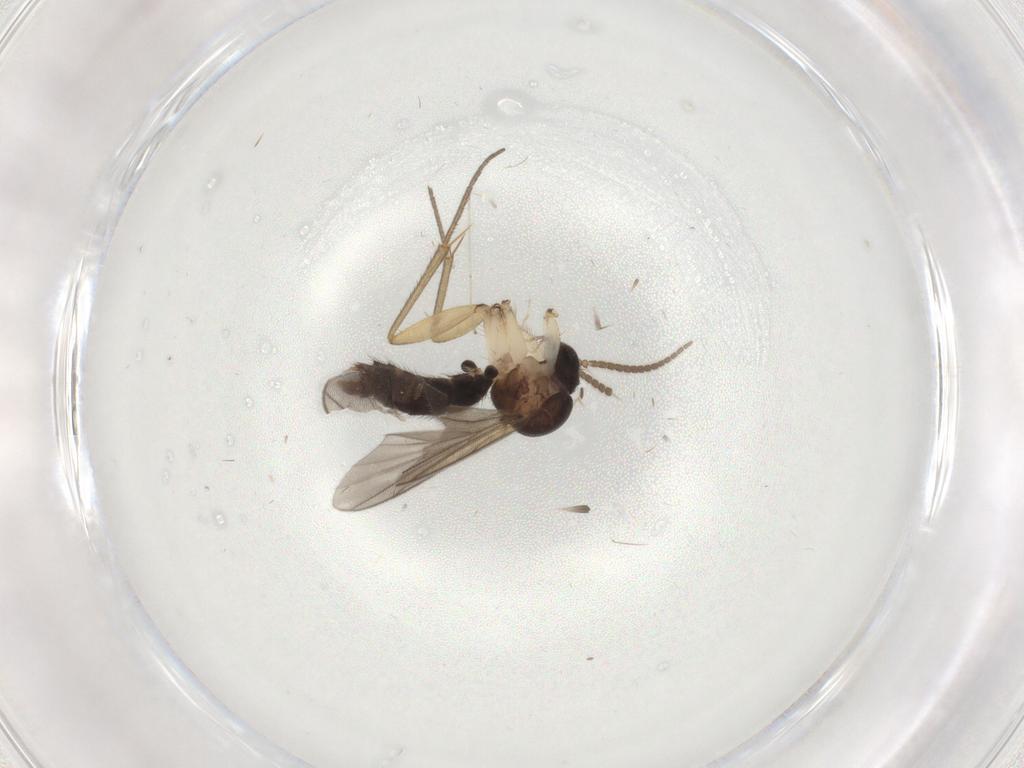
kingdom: Animalia
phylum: Arthropoda
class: Insecta
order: Diptera
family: Mycetophilidae
